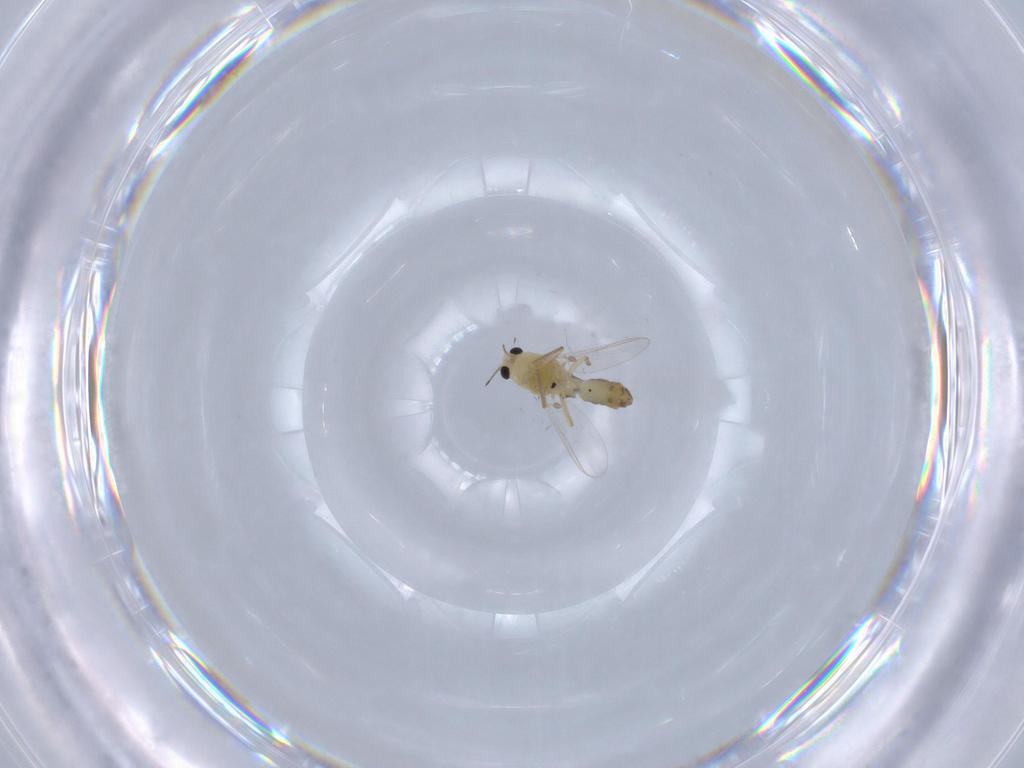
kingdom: Animalia
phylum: Arthropoda
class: Insecta
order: Diptera
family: Chironomidae
